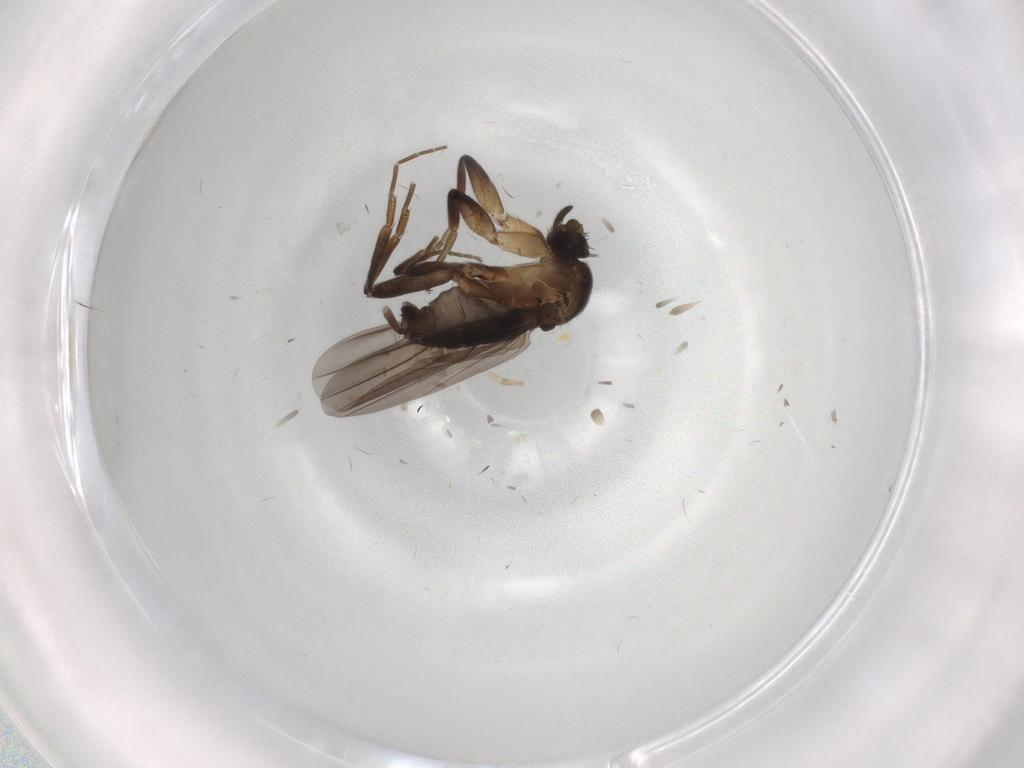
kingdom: Animalia
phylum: Arthropoda
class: Insecta
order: Diptera
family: Phoridae
